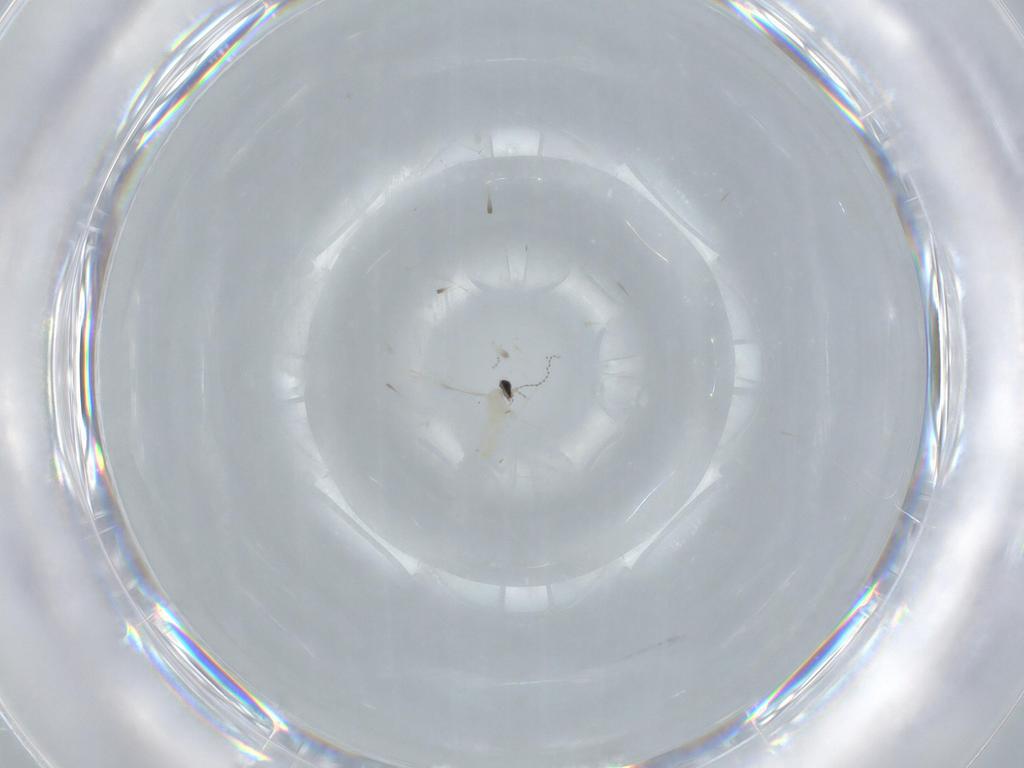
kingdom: Animalia
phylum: Arthropoda
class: Insecta
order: Diptera
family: Cecidomyiidae
